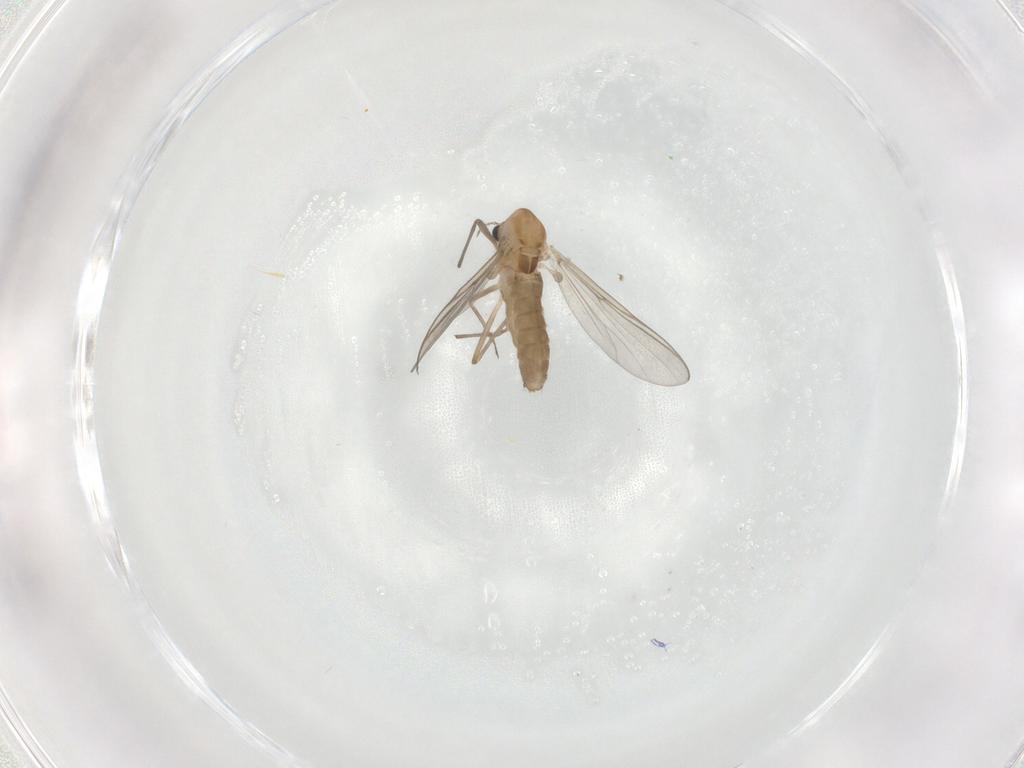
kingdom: Animalia
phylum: Arthropoda
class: Insecta
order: Diptera
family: Chironomidae
